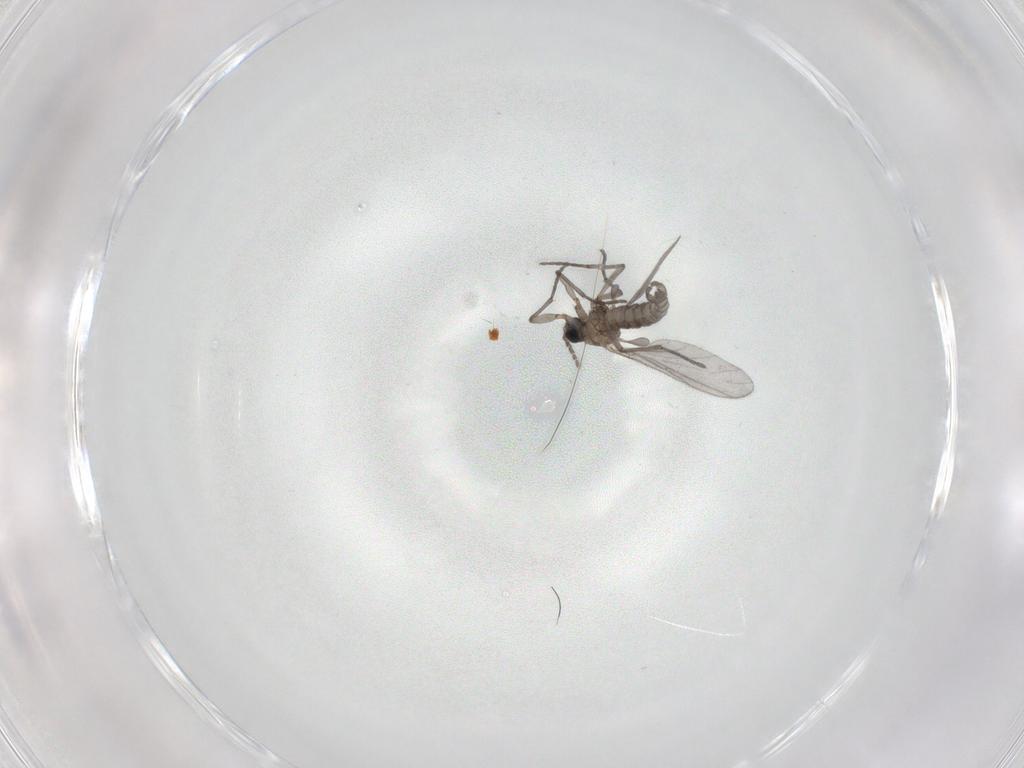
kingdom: Animalia
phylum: Arthropoda
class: Insecta
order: Diptera
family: Sciaridae
